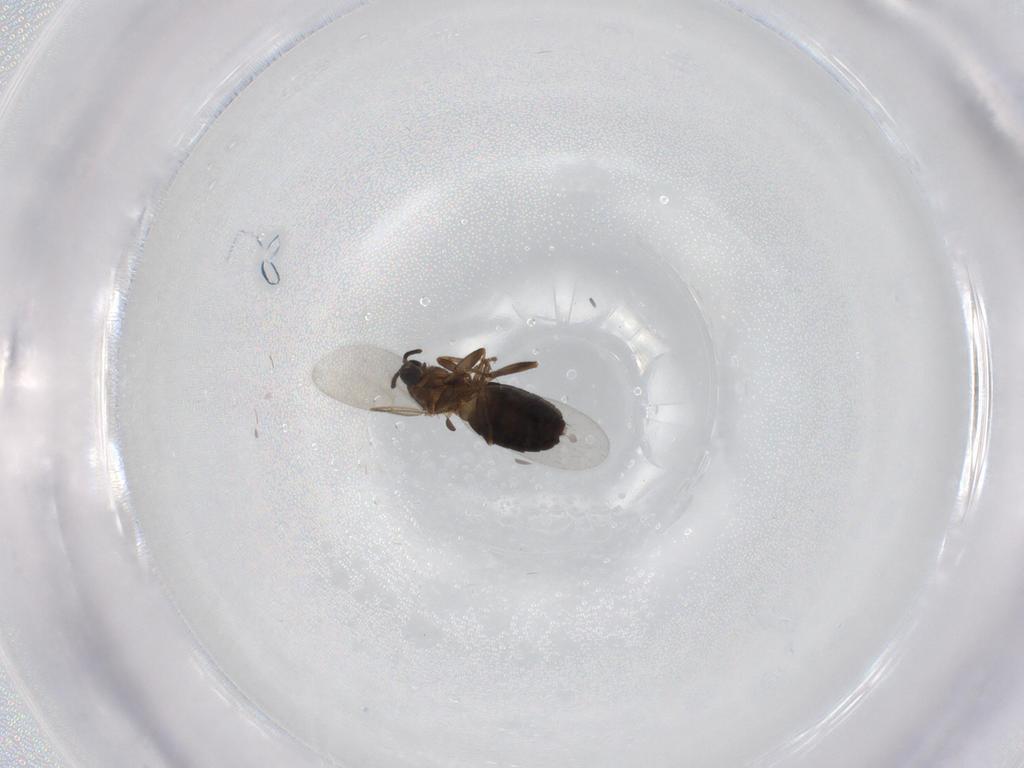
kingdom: Animalia
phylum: Arthropoda
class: Insecta
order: Diptera
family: Scatopsidae
